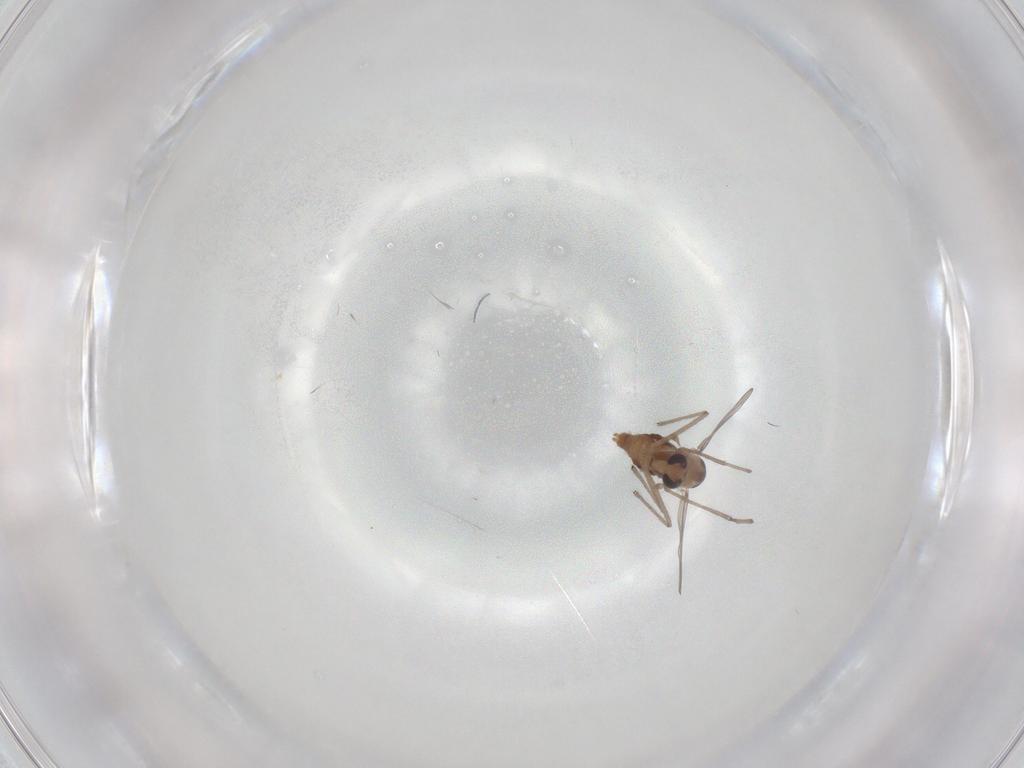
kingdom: Animalia
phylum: Arthropoda
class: Insecta
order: Diptera
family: Chironomidae
